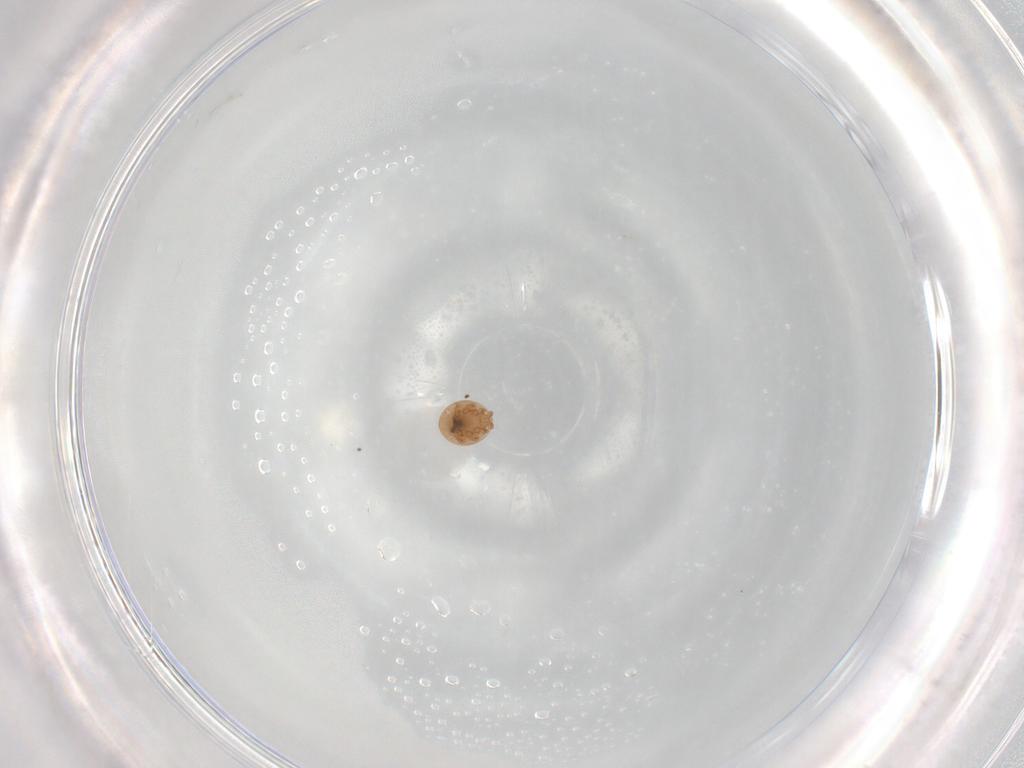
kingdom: Animalia
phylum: Arthropoda
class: Arachnida
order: Mesostigmata
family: Trematuridae
